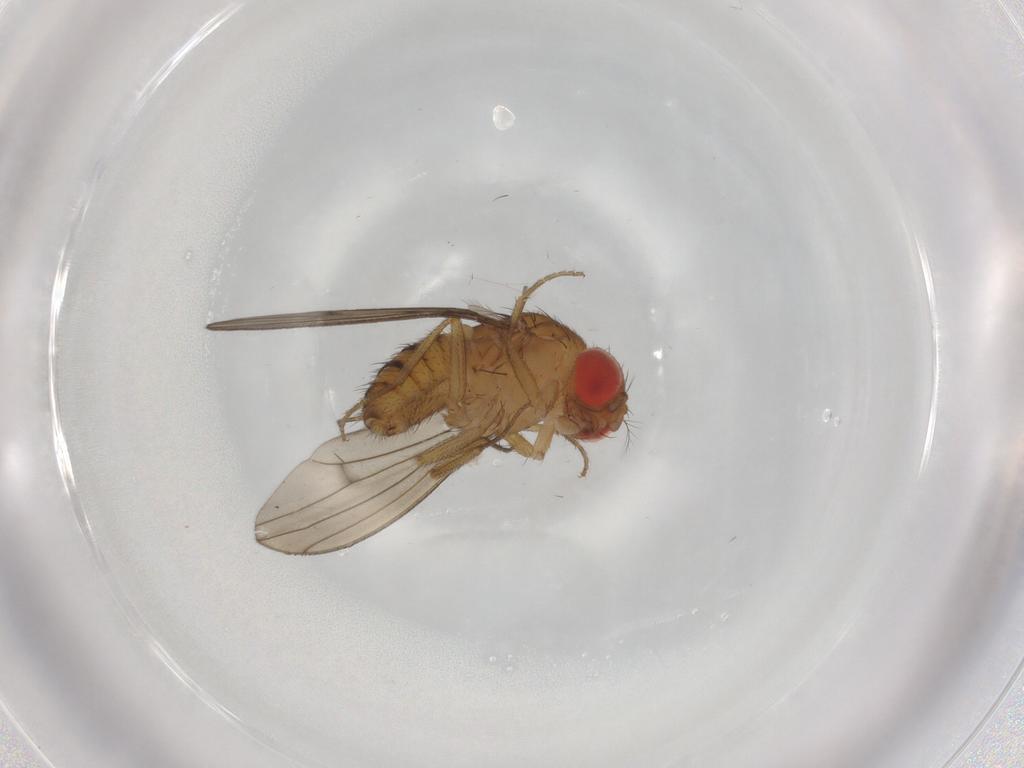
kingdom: Animalia
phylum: Arthropoda
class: Insecta
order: Diptera
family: Drosophilidae
